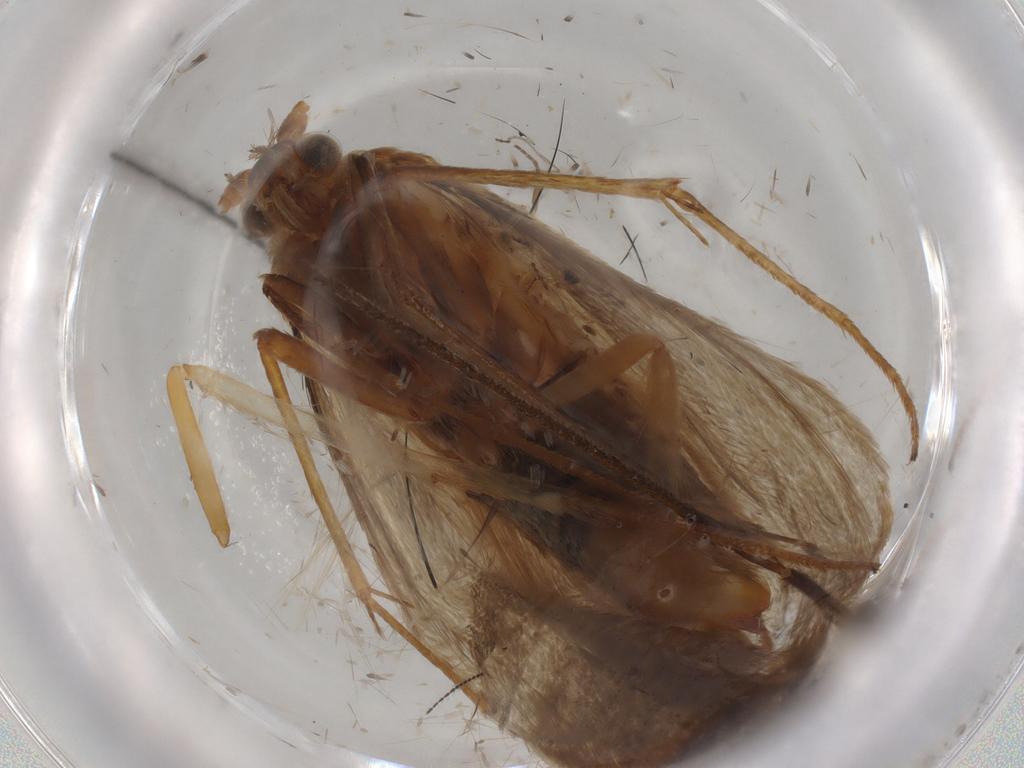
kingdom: Animalia
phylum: Arthropoda
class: Insecta
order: Lepidoptera
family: Adelidae
